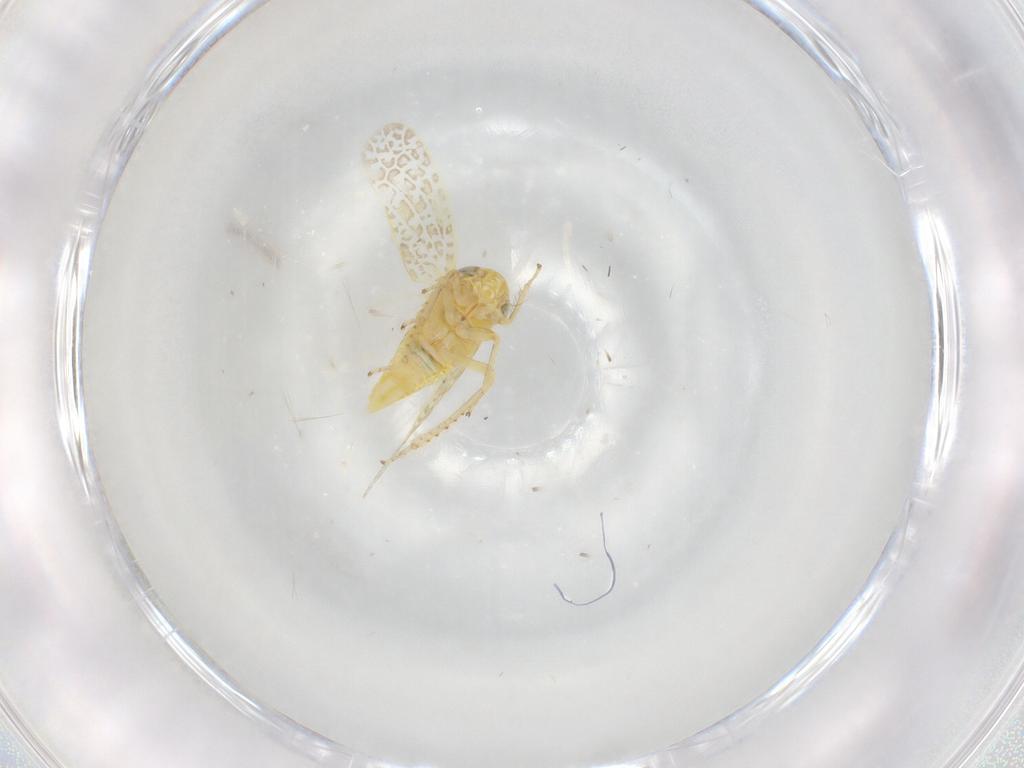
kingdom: Animalia
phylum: Arthropoda
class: Insecta
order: Hemiptera
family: Cicadellidae
